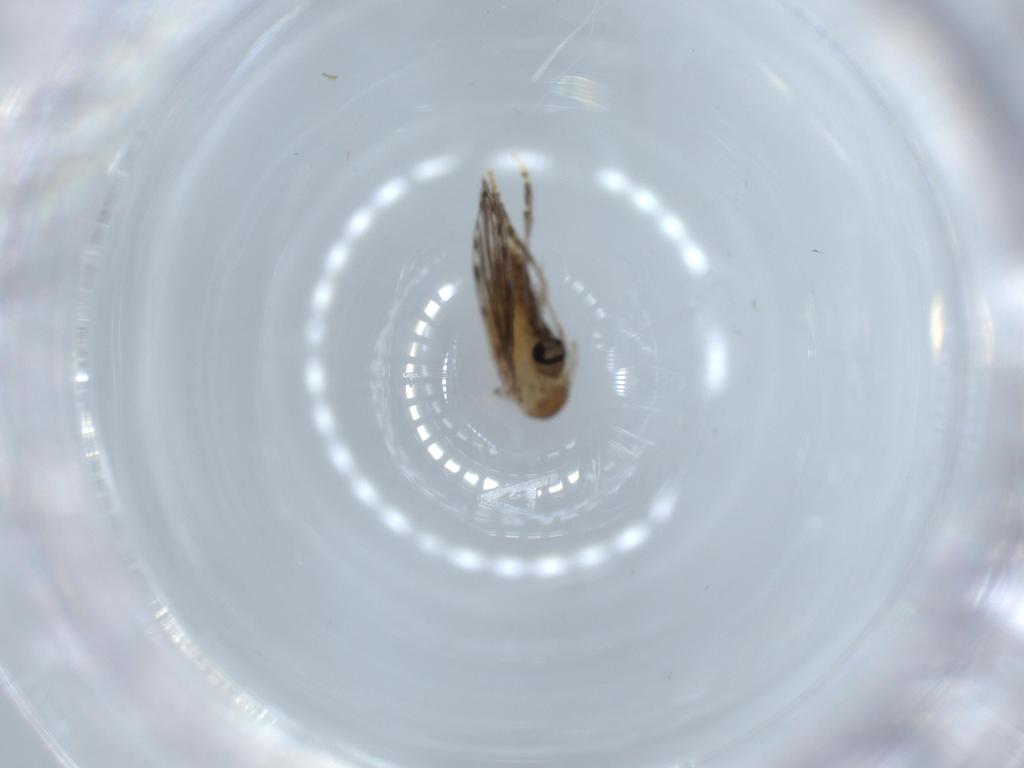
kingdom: Animalia
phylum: Arthropoda
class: Insecta
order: Diptera
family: Psychodidae
